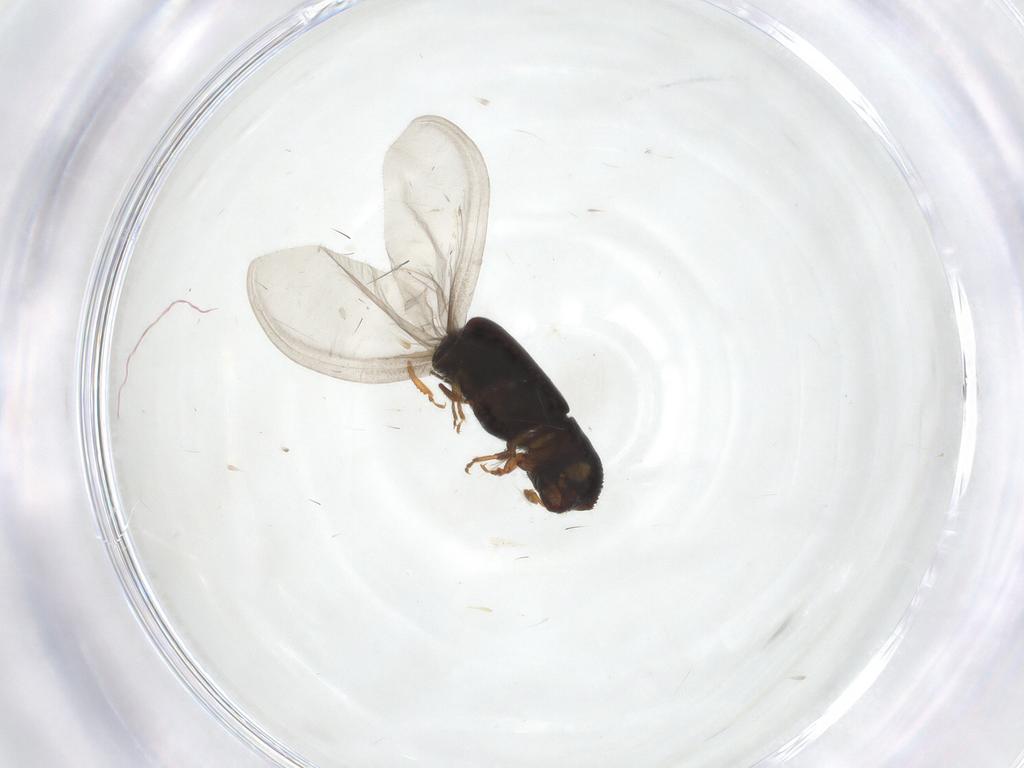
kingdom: Animalia
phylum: Arthropoda
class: Insecta
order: Coleoptera
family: Curculionidae
